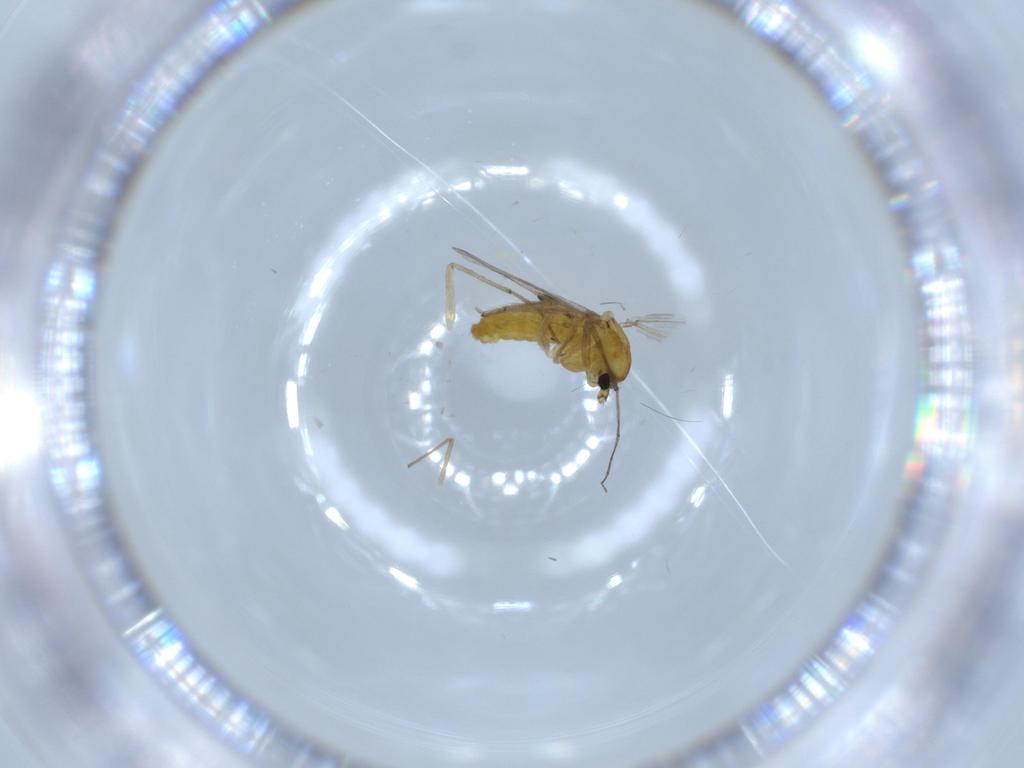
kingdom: Animalia
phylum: Arthropoda
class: Insecta
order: Diptera
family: Chironomidae
